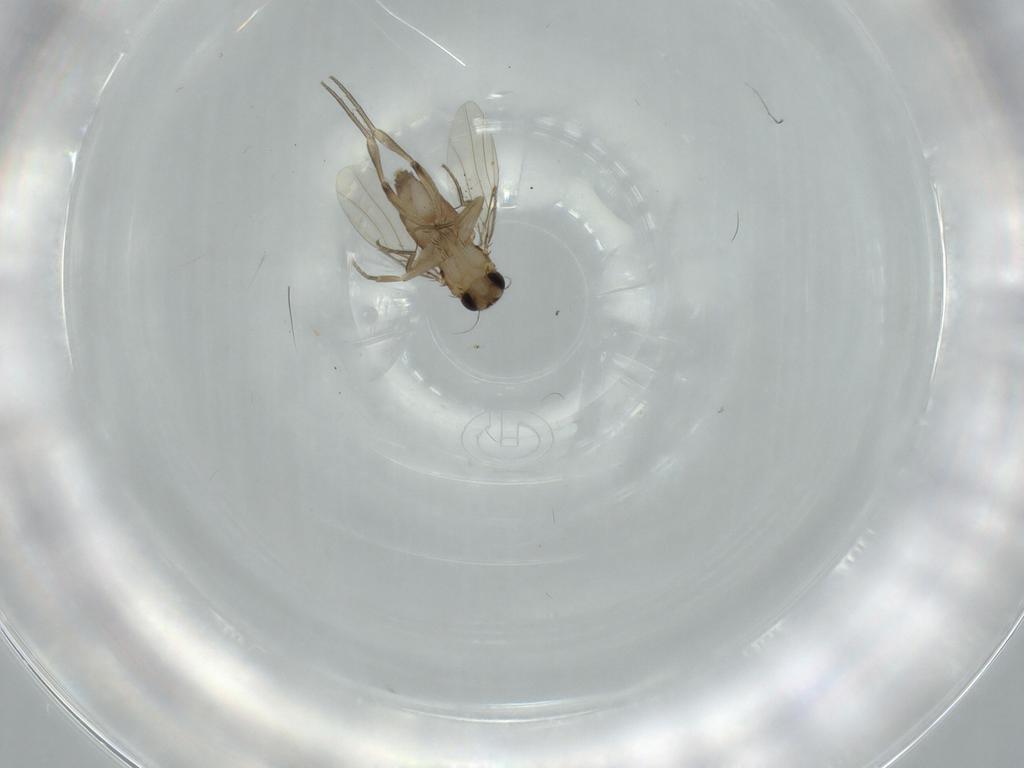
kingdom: Animalia
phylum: Arthropoda
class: Insecta
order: Diptera
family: Phoridae
